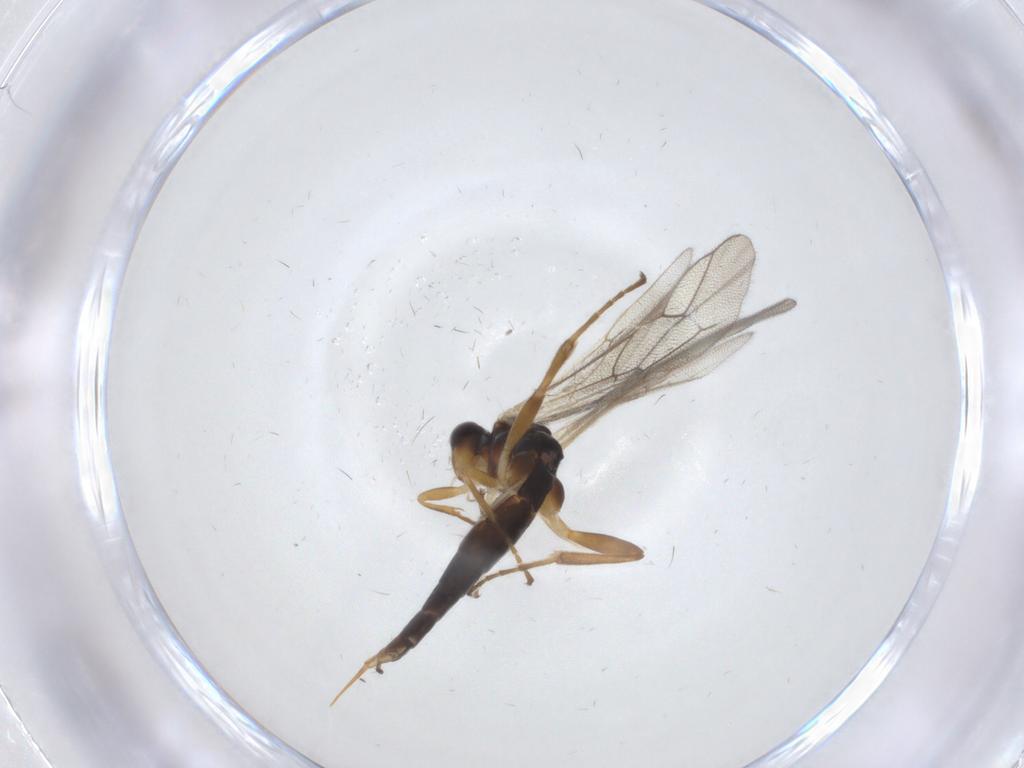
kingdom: Animalia
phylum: Arthropoda
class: Insecta
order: Hymenoptera
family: Ichneumonidae
